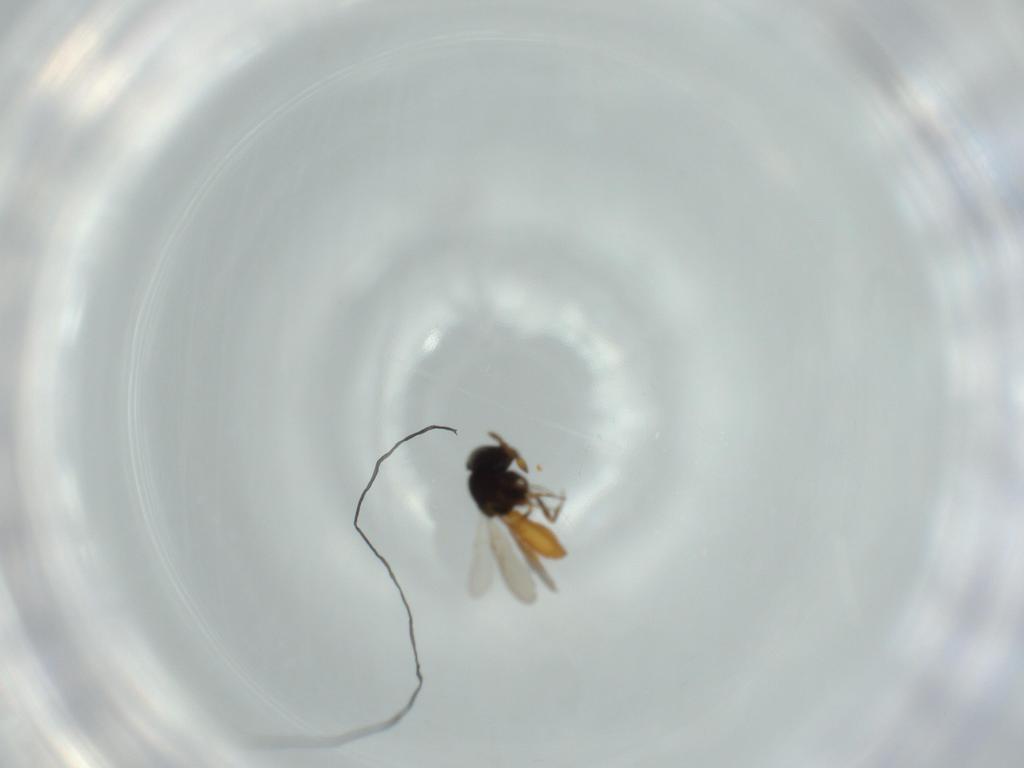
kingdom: Animalia
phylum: Arthropoda
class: Insecta
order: Hymenoptera
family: Scelionidae
